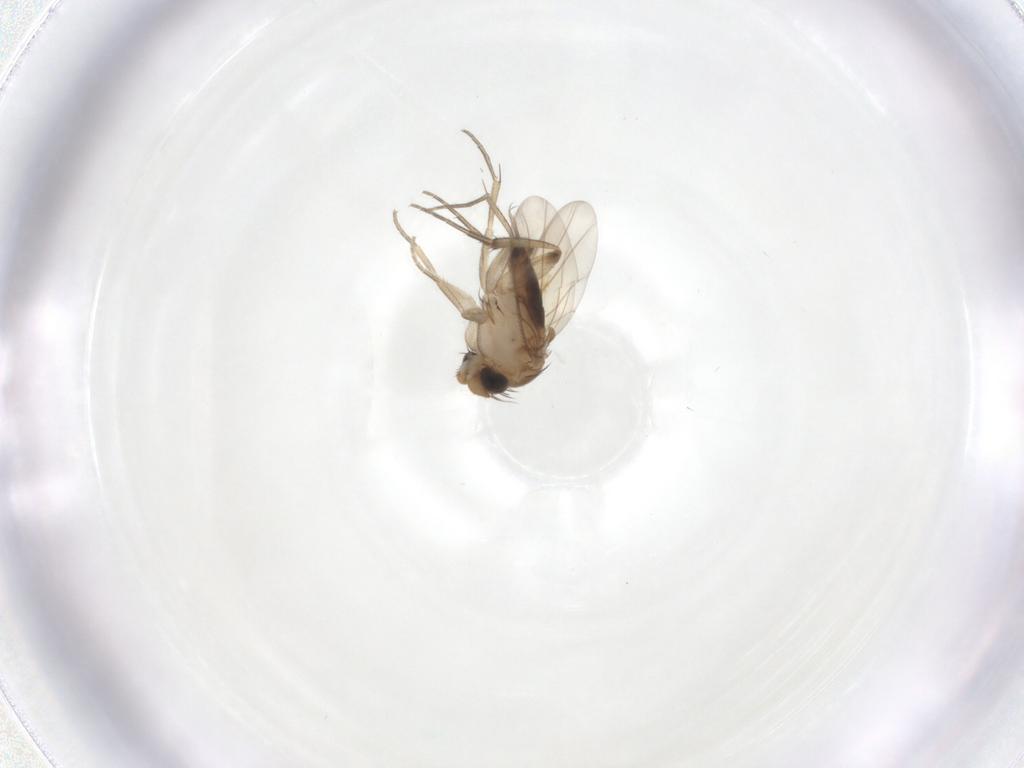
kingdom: Animalia
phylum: Arthropoda
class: Insecta
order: Diptera
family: Phoridae
